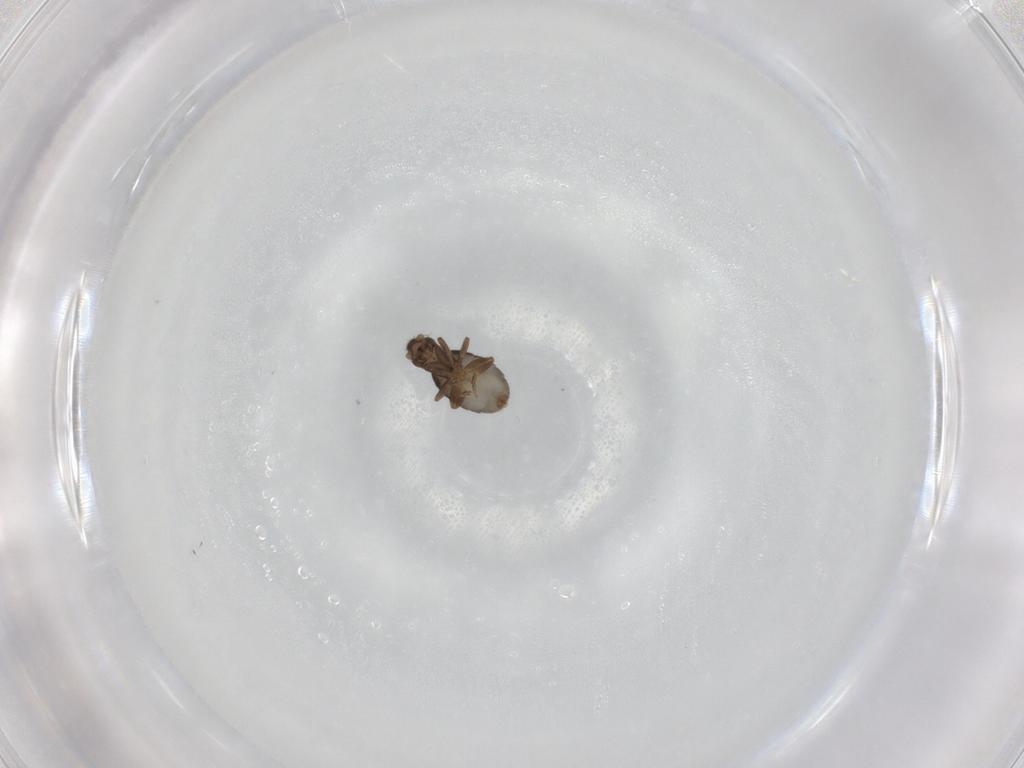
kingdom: Animalia
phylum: Arthropoda
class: Insecta
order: Diptera
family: Phoridae
